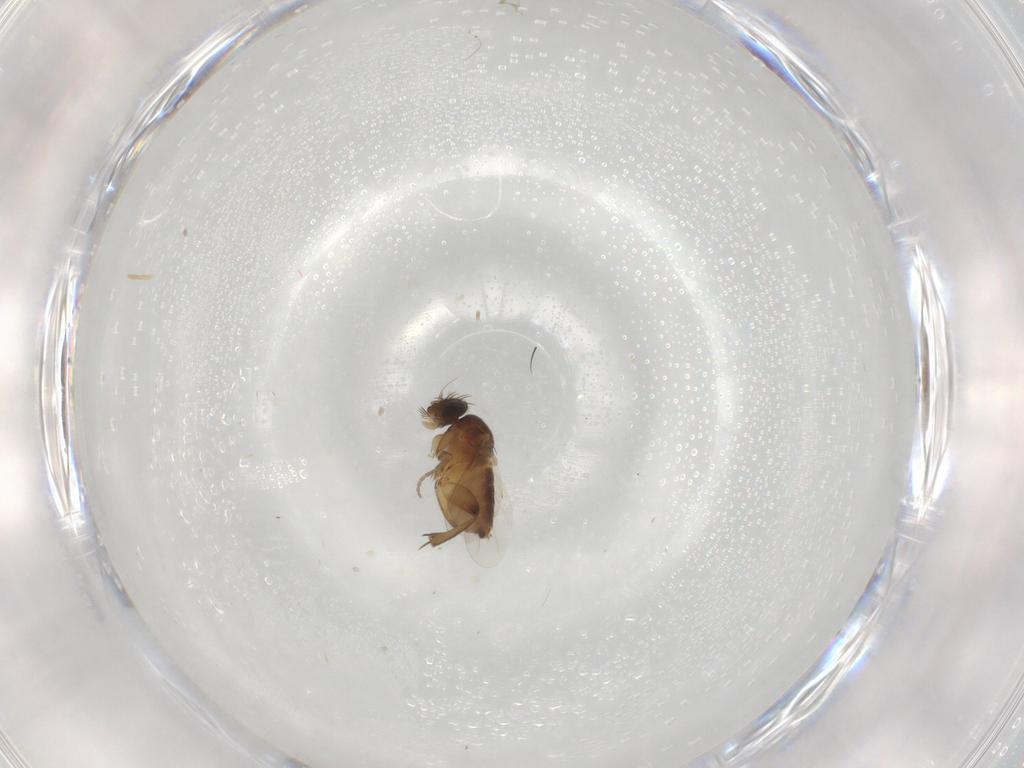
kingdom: Animalia
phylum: Arthropoda
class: Insecta
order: Diptera
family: Phoridae
